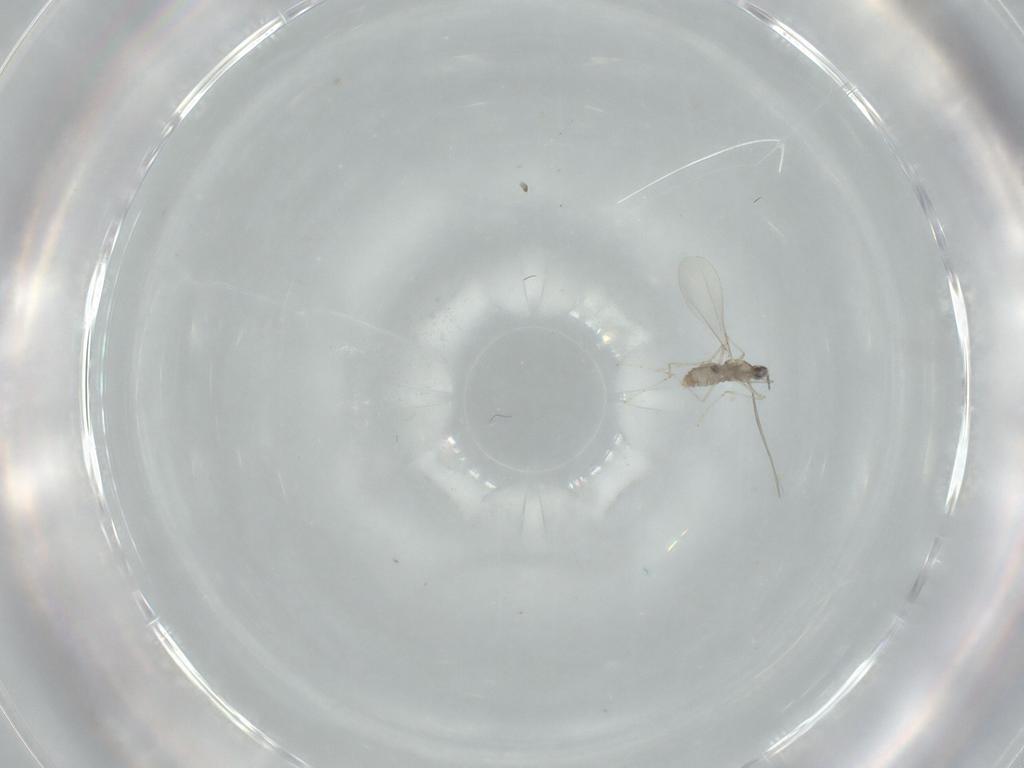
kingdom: Animalia
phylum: Arthropoda
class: Insecta
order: Diptera
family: Cecidomyiidae
